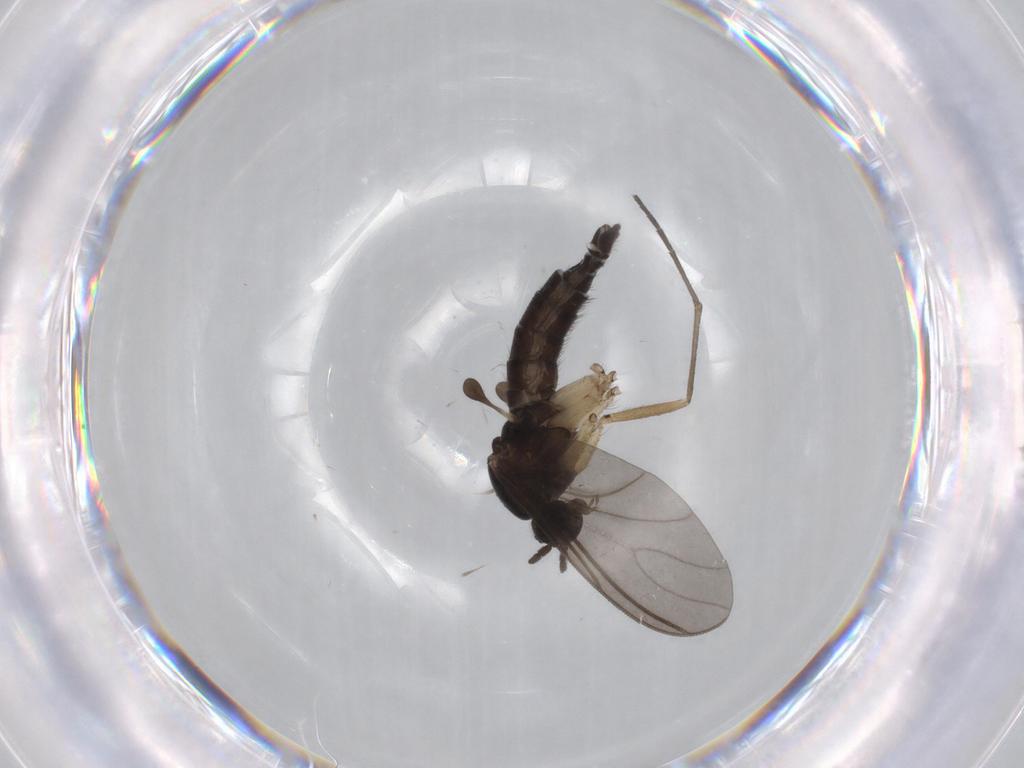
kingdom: Animalia
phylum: Arthropoda
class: Insecta
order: Diptera
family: Sciaridae
